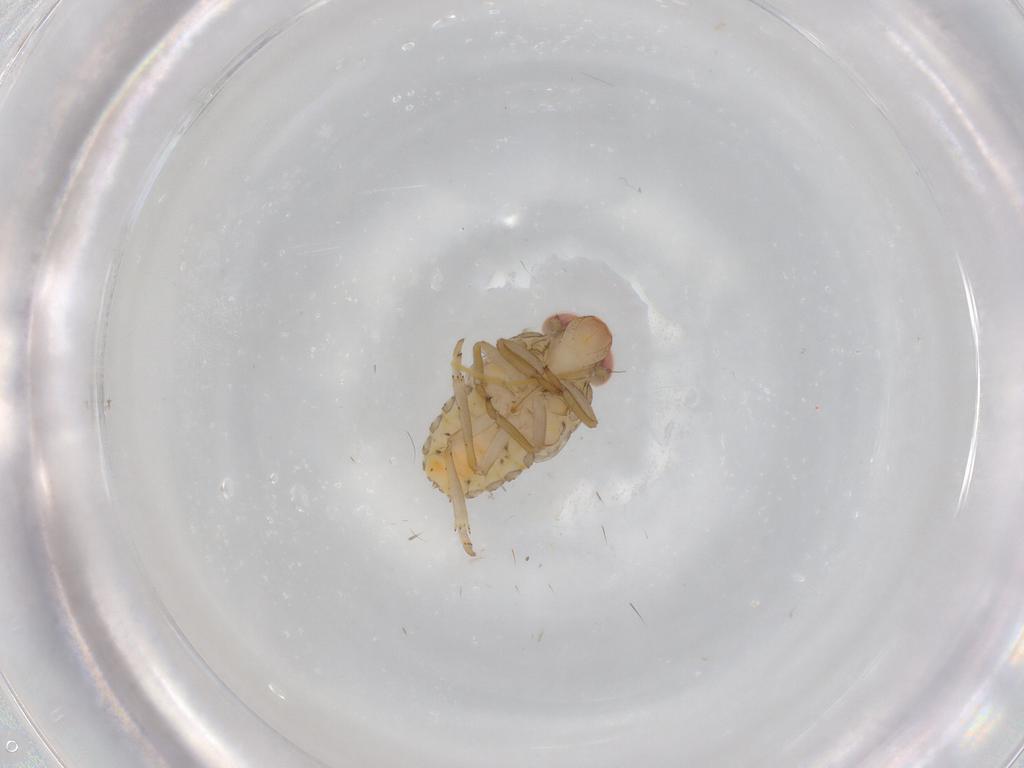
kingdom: Animalia
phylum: Arthropoda
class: Insecta
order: Hemiptera
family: Issidae
